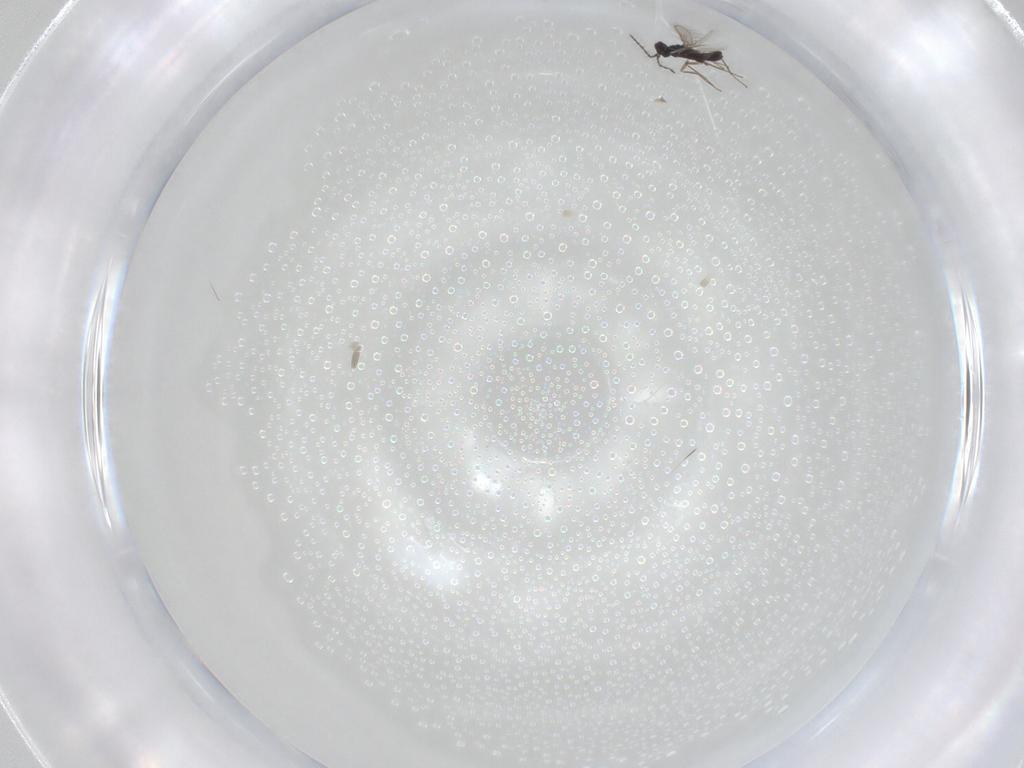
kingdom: Animalia
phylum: Arthropoda
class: Insecta
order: Hymenoptera
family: Pteromalidae
